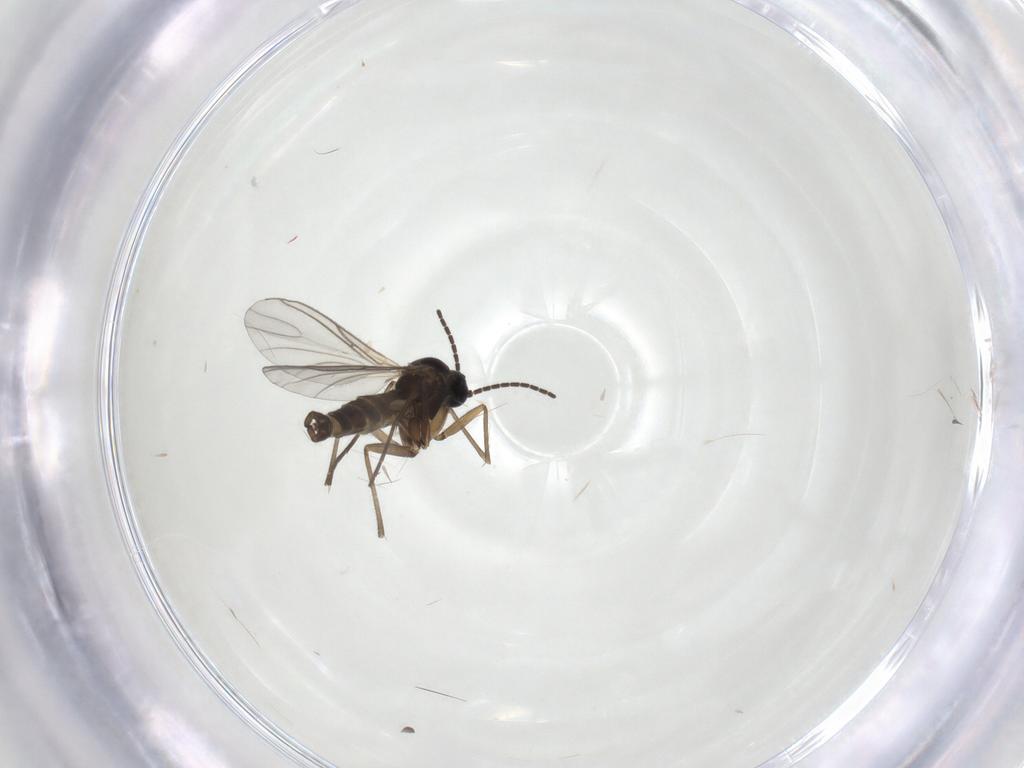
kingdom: Animalia
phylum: Arthropoda
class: Insecta
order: Diptera
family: Sciaridae
